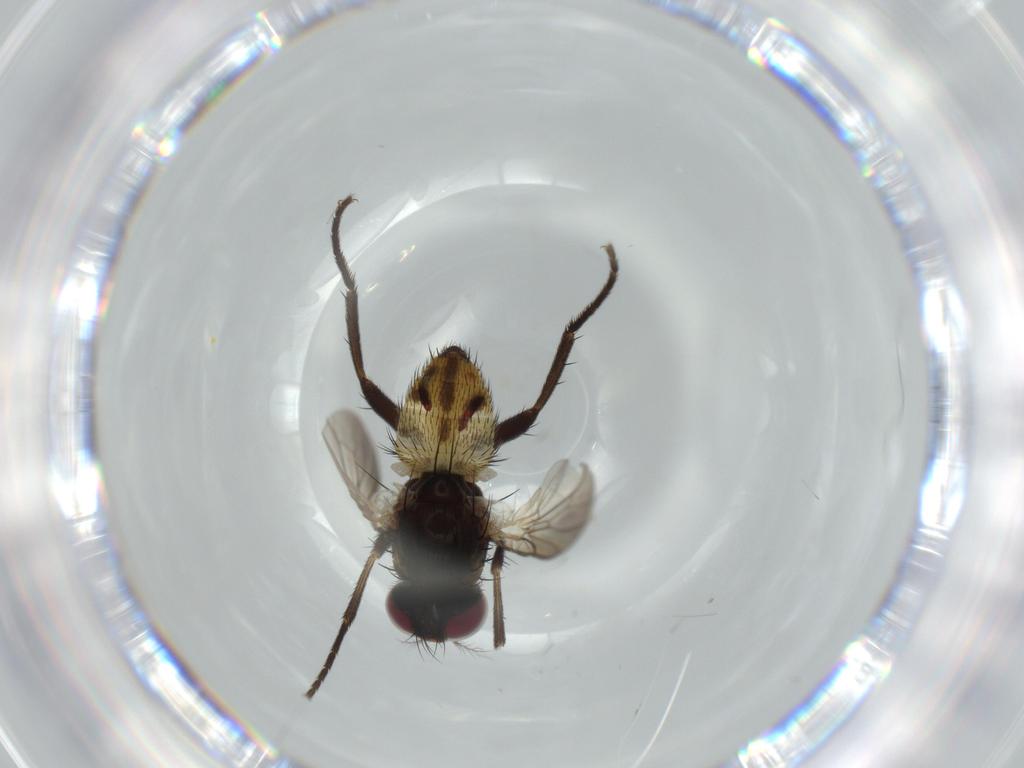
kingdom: Animalia
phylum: Arthropoda
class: Insecta
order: Diptera
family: Anthomyiidae
